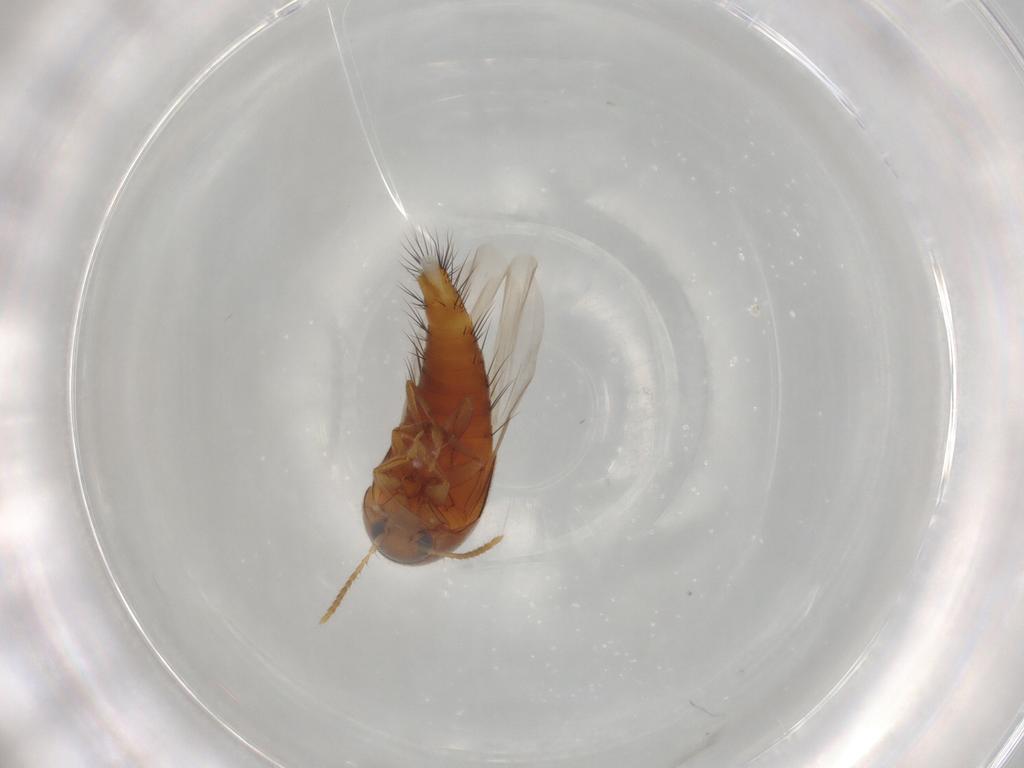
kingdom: Animalia
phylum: Arthropoda
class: Insecta
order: Coleoptera
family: Staphylinidae
